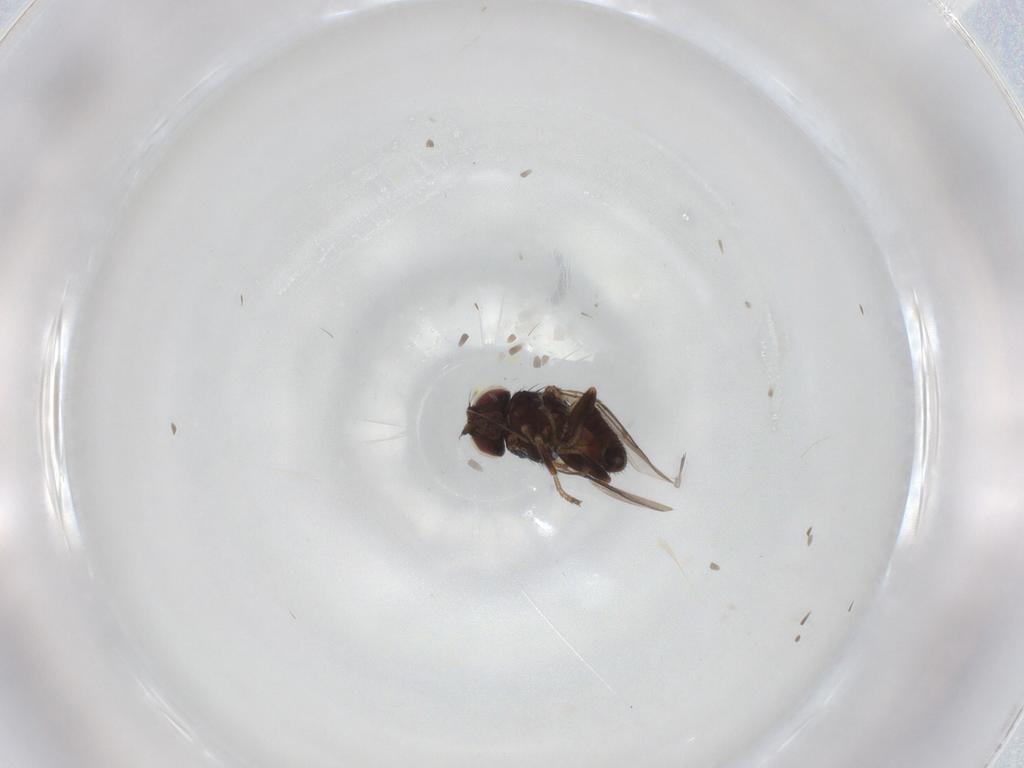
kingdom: Animalia
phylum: Arthropoda
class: Insecta
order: Diptera
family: Chloropidae
